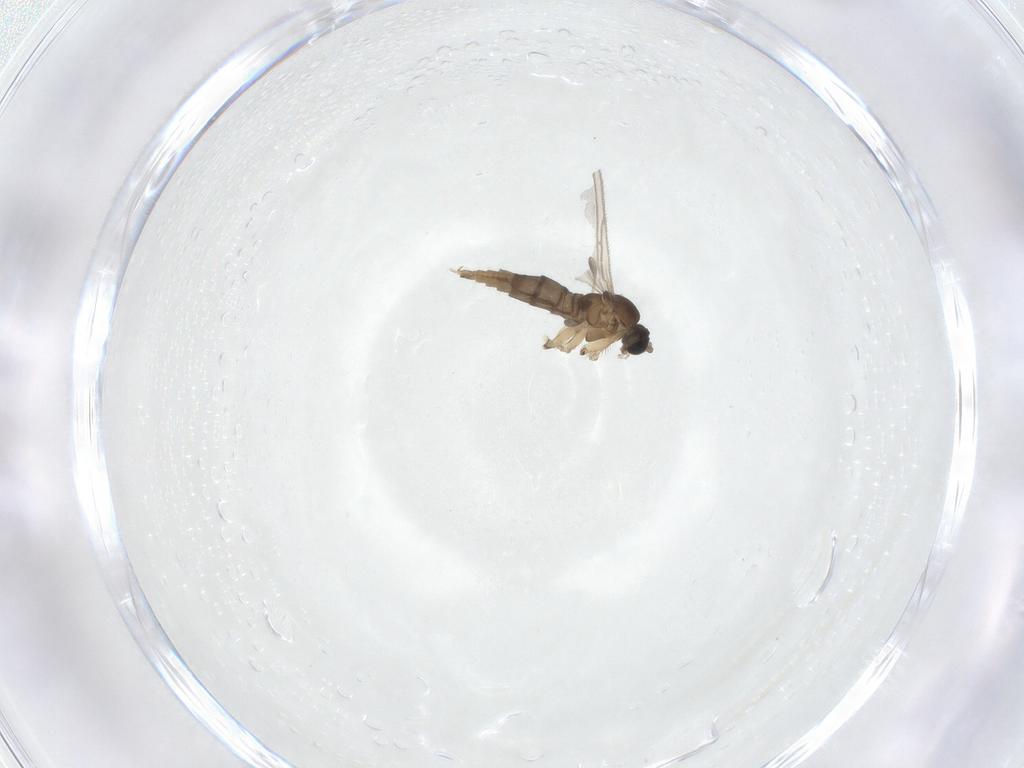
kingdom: Animalia
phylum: Arthropoda
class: Insecta
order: Diptera
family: Sciaridae
